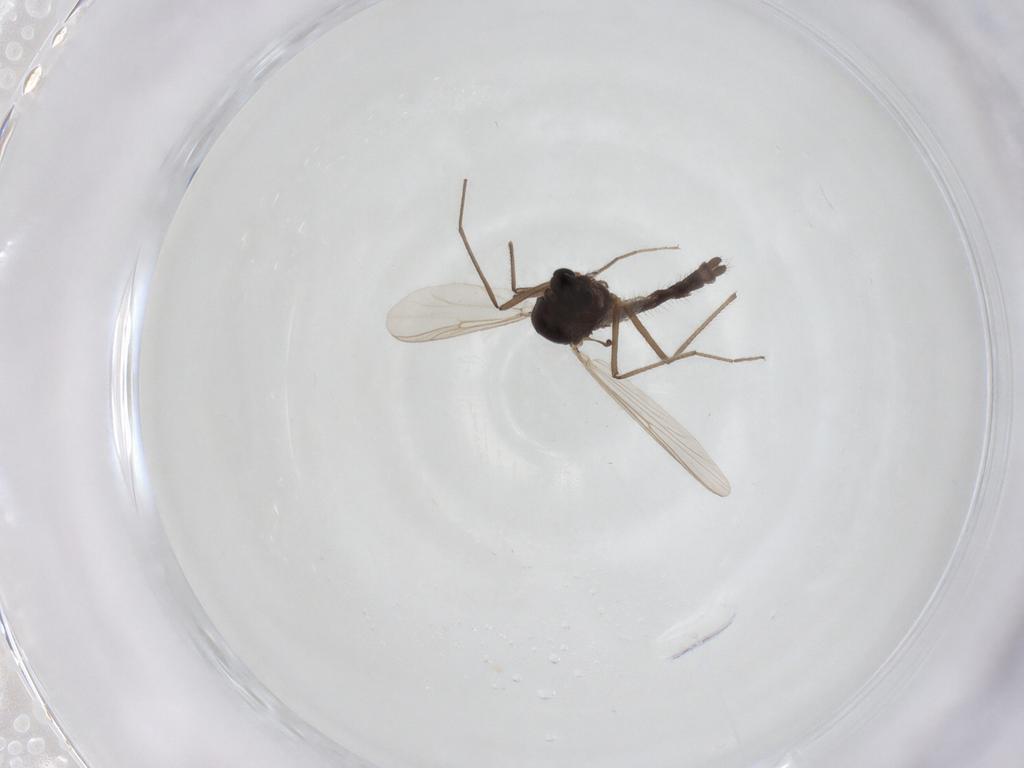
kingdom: Animalia
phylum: Arthropoda
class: Insecta
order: Diptera
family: Chironomidae
